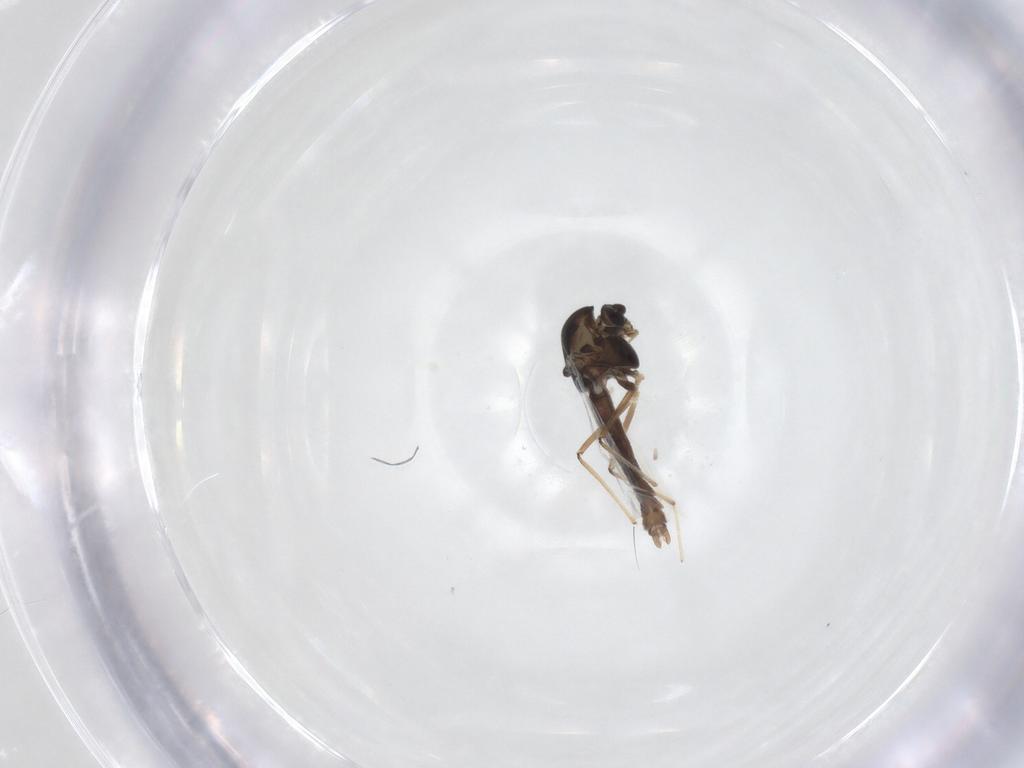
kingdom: Animalia
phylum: Arthropoda
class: Insecta
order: Diptera
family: Chironomidae
